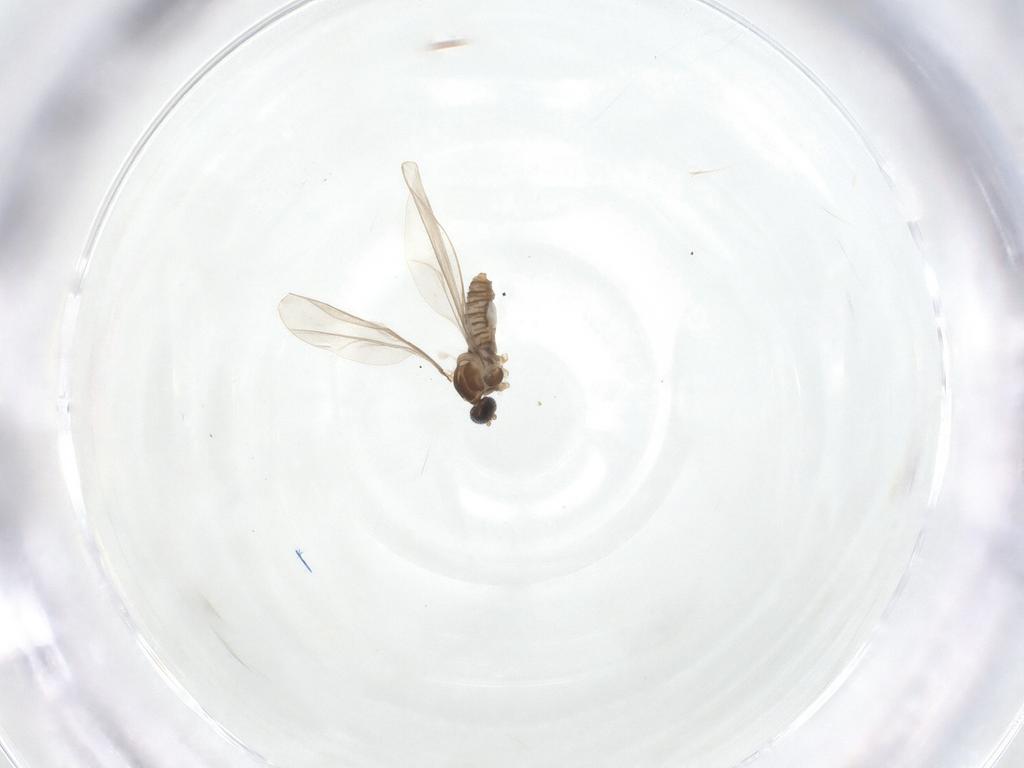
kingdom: Animalia
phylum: Arthropoda
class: Insecta
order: Diptera
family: Cecidomyiidae
